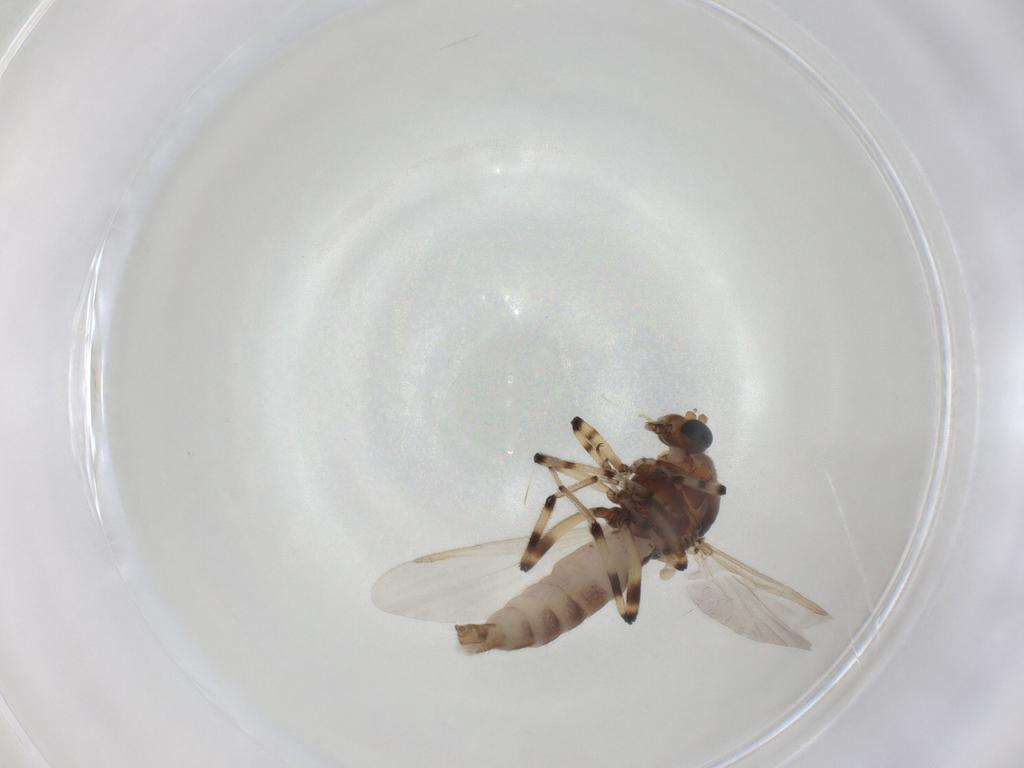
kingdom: Animalia
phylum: Arthropoda
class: Insecta
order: Diptera
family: Ceratopogonidae
